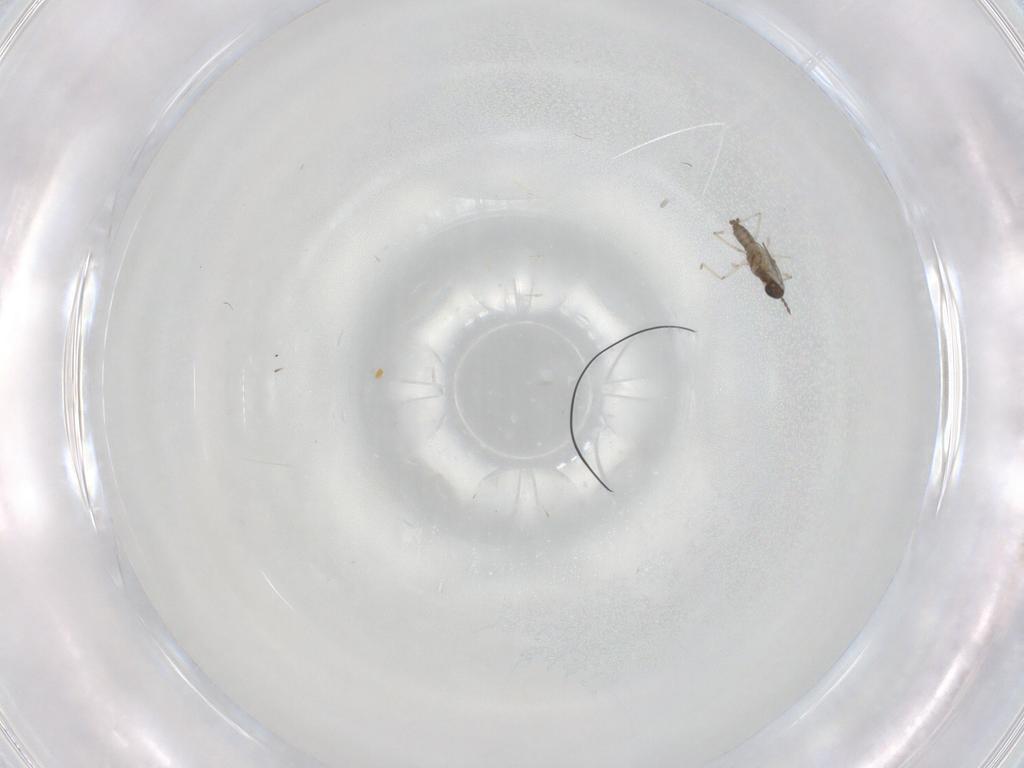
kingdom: Animalia
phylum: Arthropoda
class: Insecta
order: Diptera
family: Cecidomyiidae
